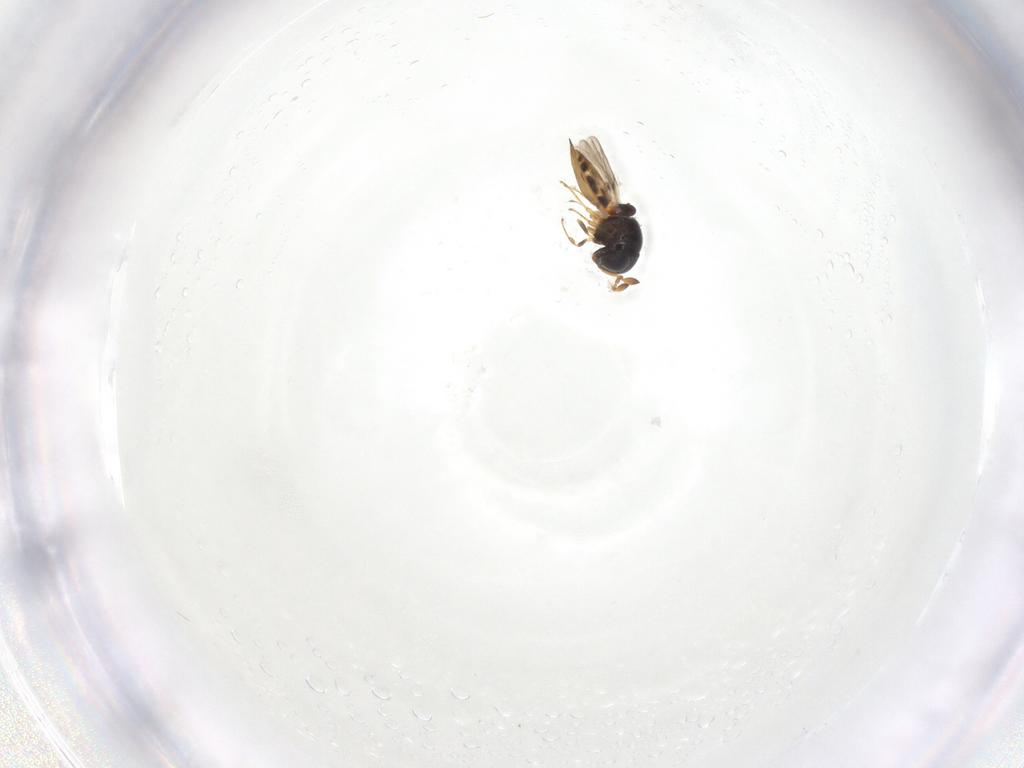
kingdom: Animalia
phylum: Arthropoda
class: Insecta
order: Hymenoptera
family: Scelionidae
